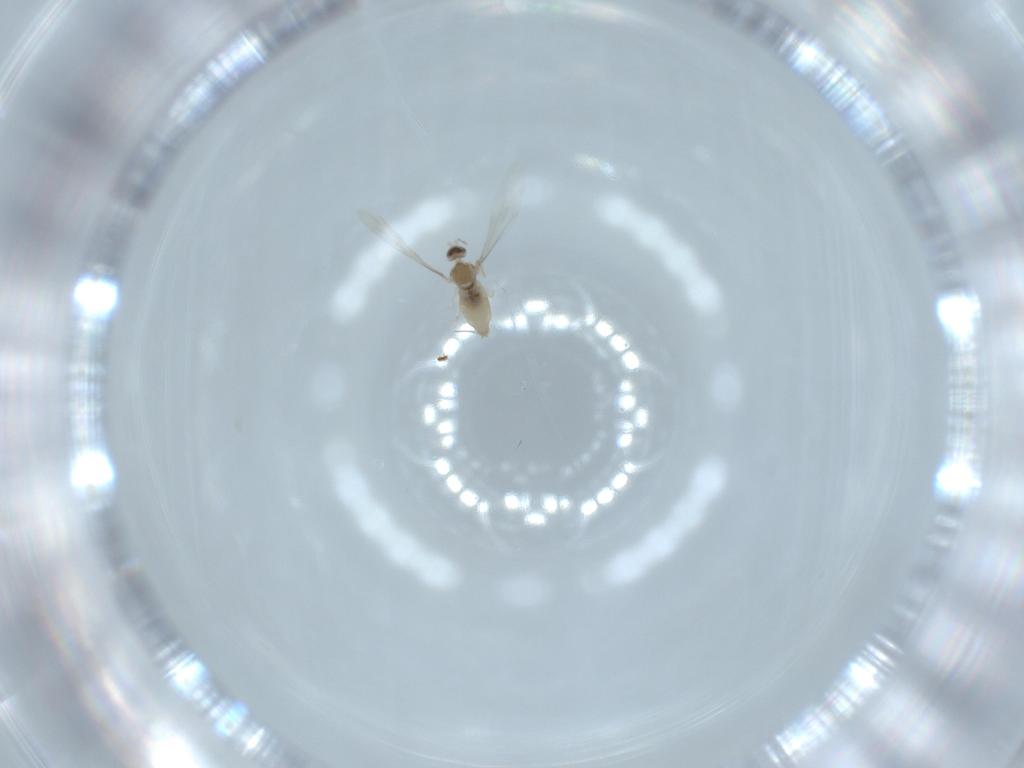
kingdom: Animalia
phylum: Arthropoda
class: Insecta
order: Diptera
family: Cecidomyiidae
